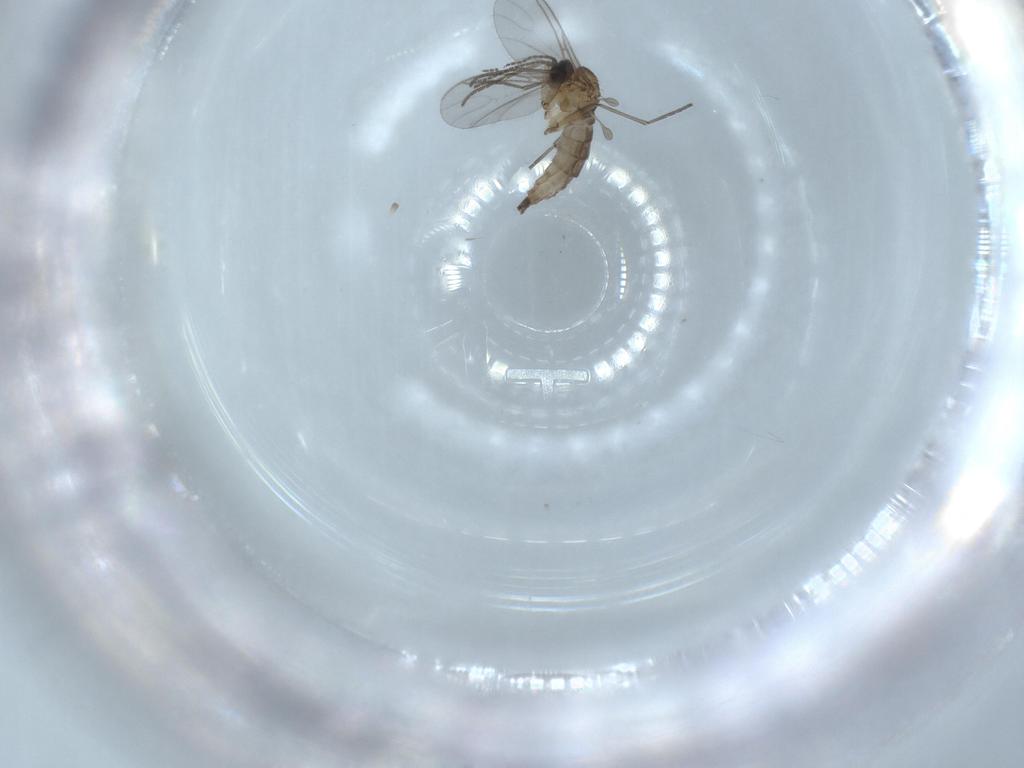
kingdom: Animalia
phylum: Arthropoda
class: Insecta
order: Diptera
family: Sciaridae
